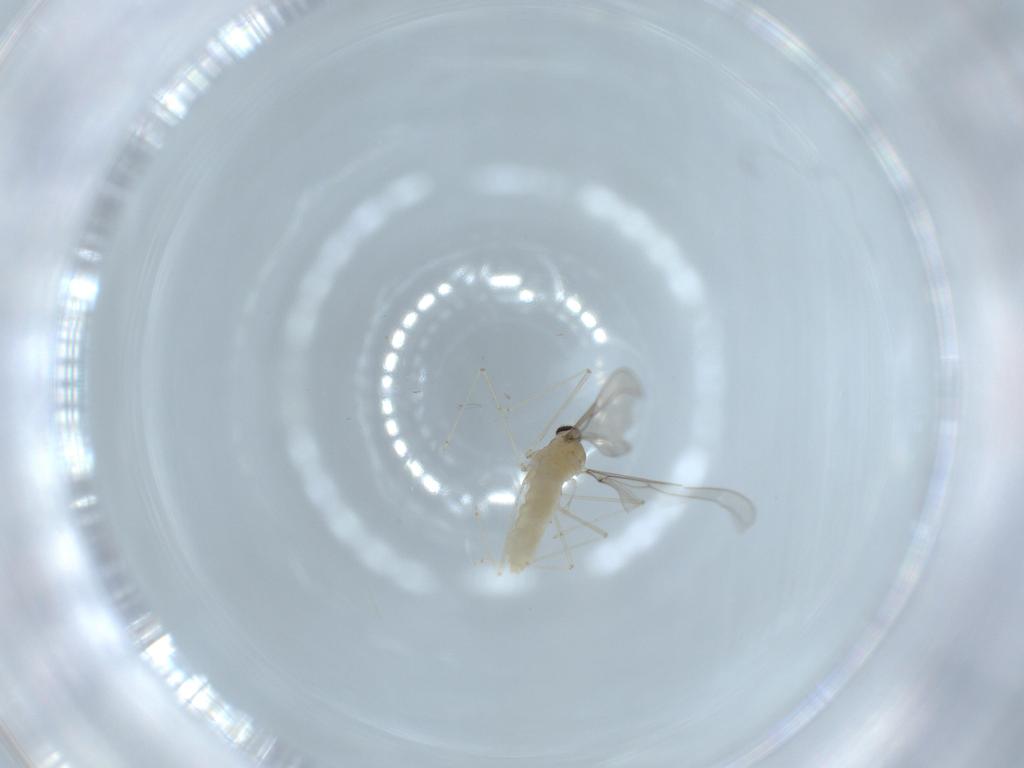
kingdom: Animalia
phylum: Arthropoda
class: Insecta
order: Diptera
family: Cecidomyiidae
